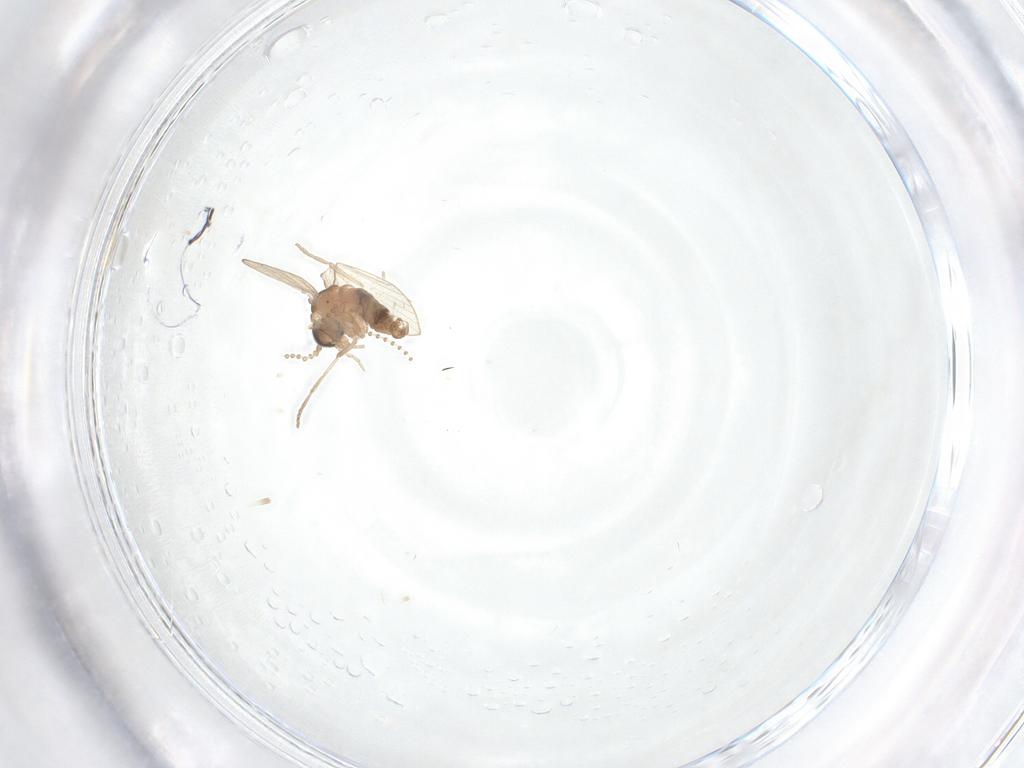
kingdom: Animalia
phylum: Arthropoda
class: Insecta
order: Diptera
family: Psychodidae
